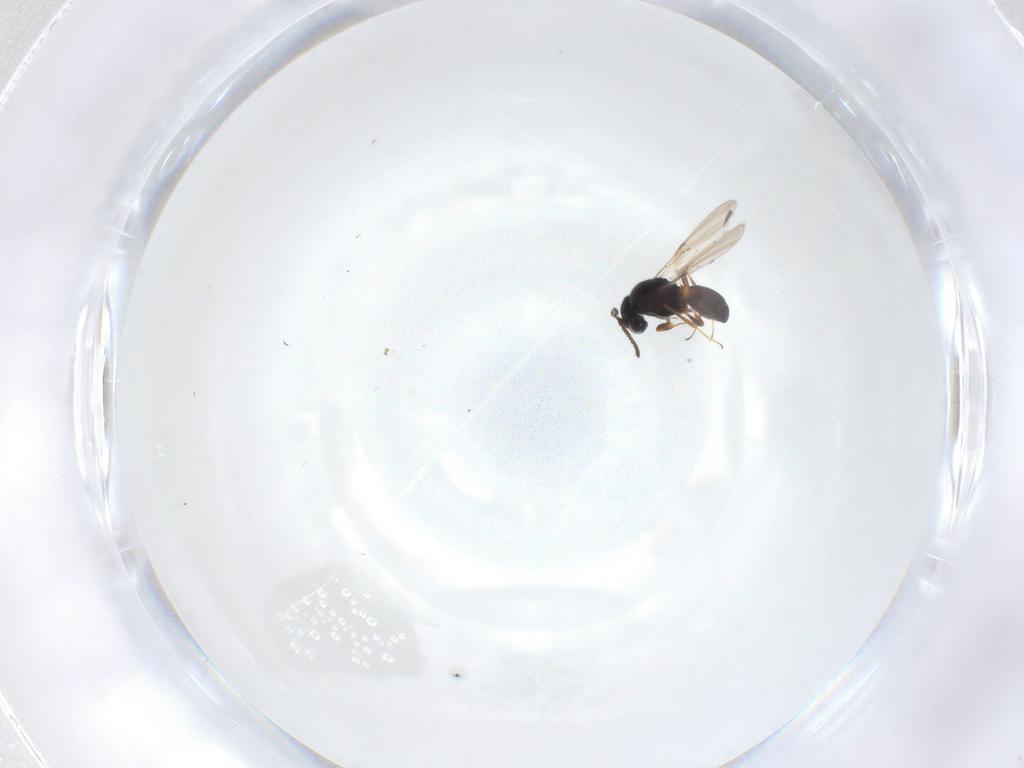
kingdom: Animalia
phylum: Arthropoda
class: Insecta
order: Hymenoptera
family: Scelionidae
